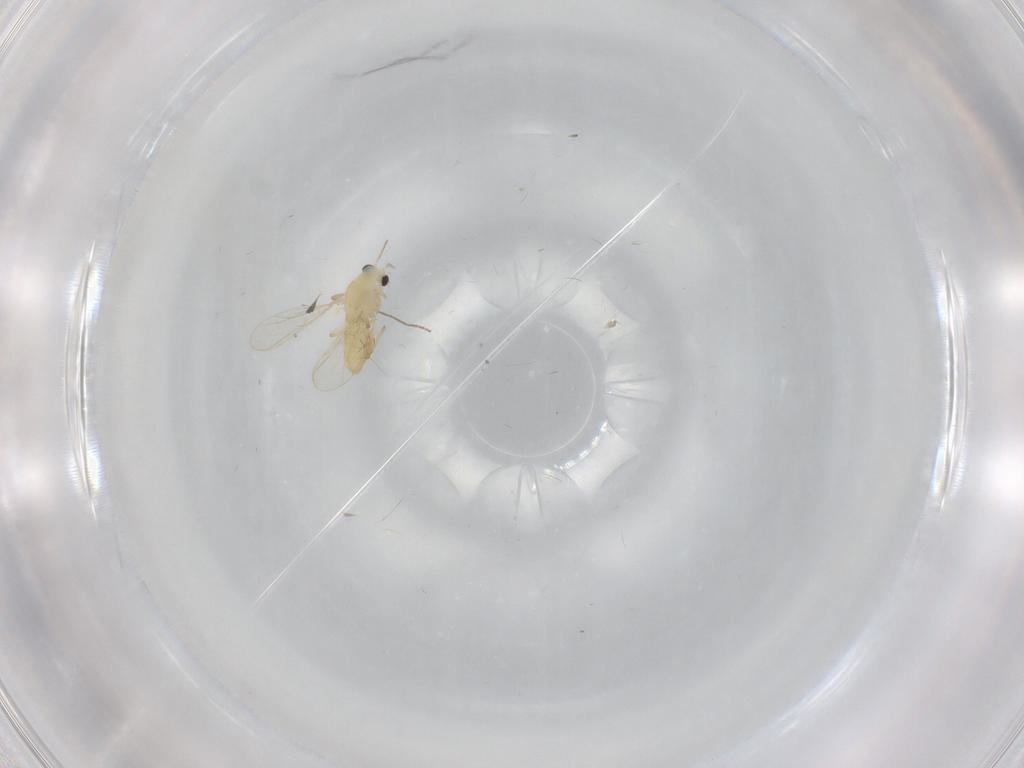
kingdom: Animalia
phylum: Arthropoda
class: Insecta
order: Diptera
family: Chironomidae
